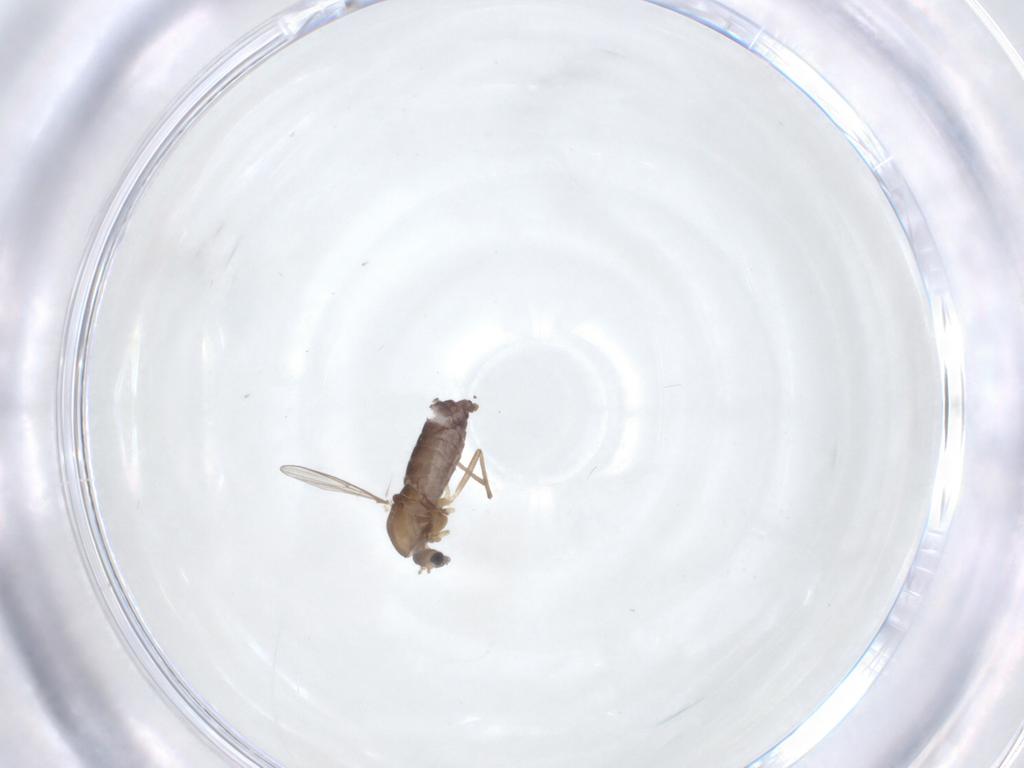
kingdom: Animalia
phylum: Arthropoda
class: Insecta
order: Diptera
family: Chironomidae
